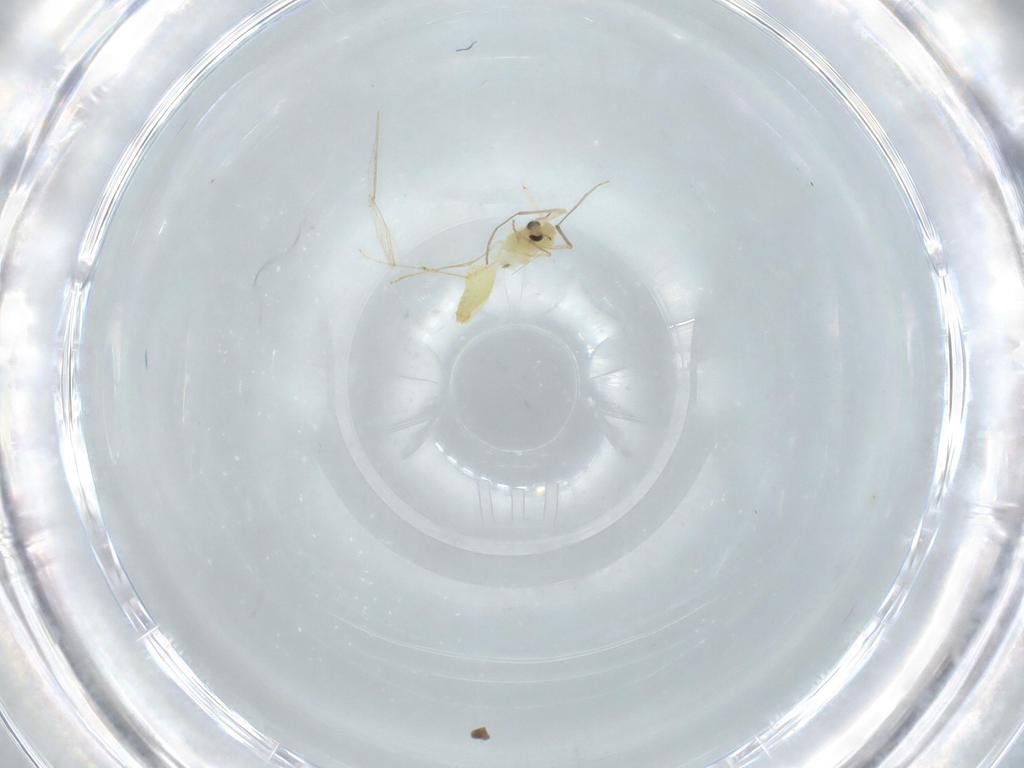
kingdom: Animalia
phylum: Arthropoda
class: Insecta
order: Diptera
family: Chironomidae
